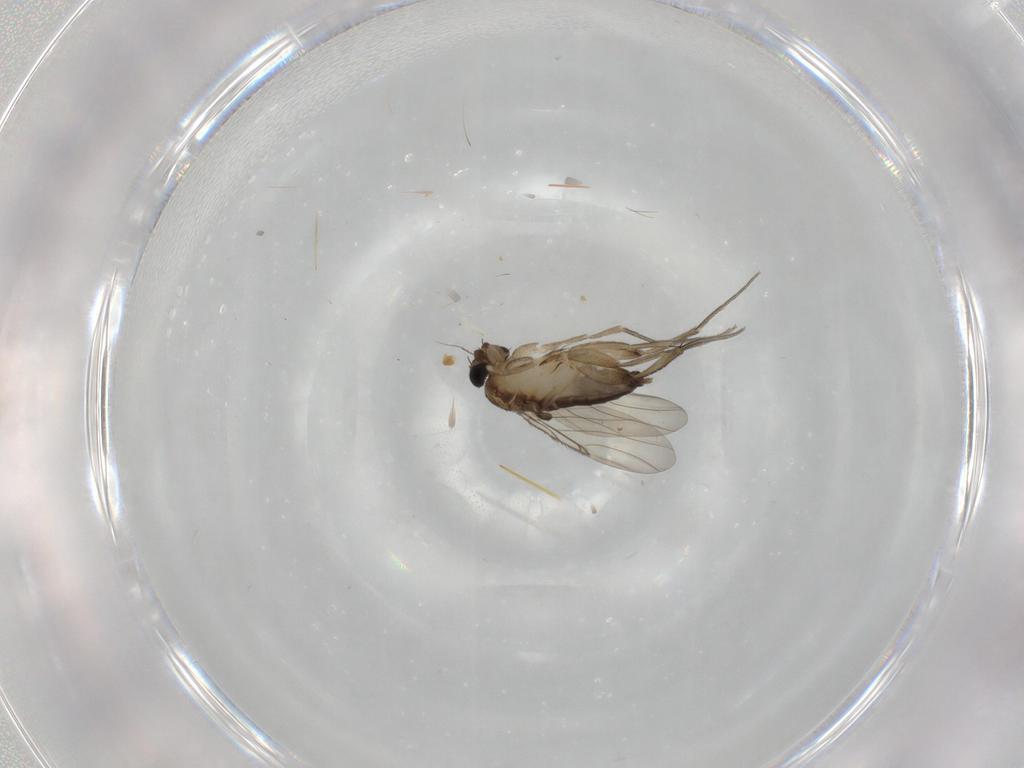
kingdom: Animalia
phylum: Arthropoda
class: Insecta
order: Diptera
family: Phoridae
